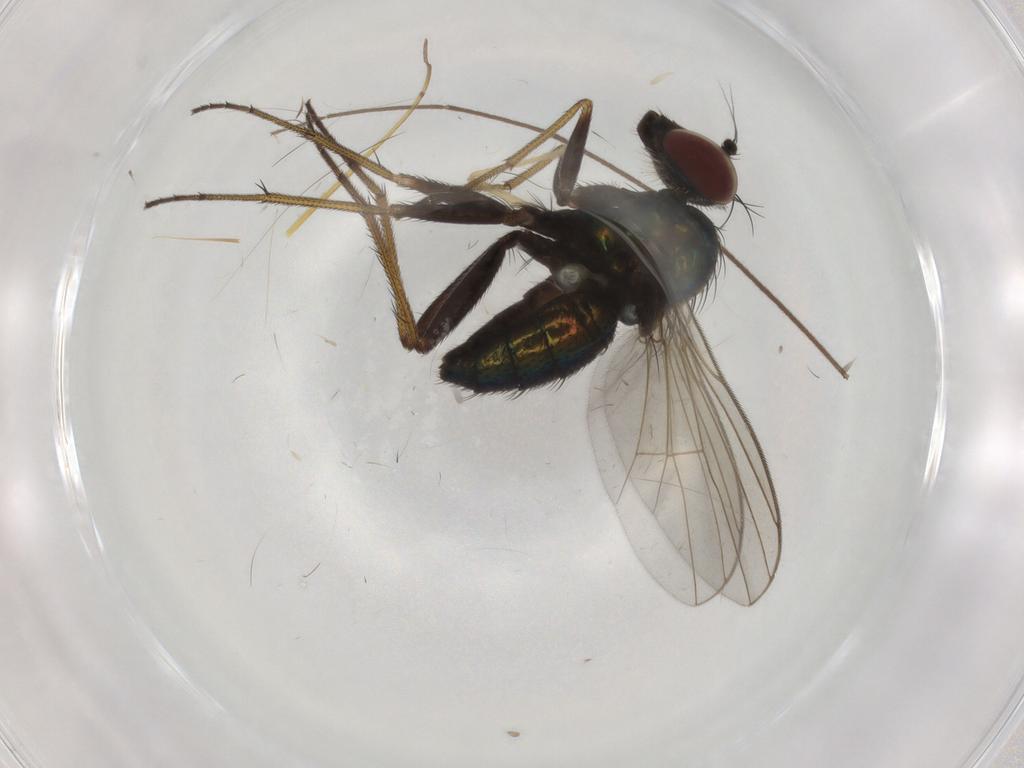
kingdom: Animalia
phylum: Arthropoda
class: Insecta
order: Diptera
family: Dolichopodidae
